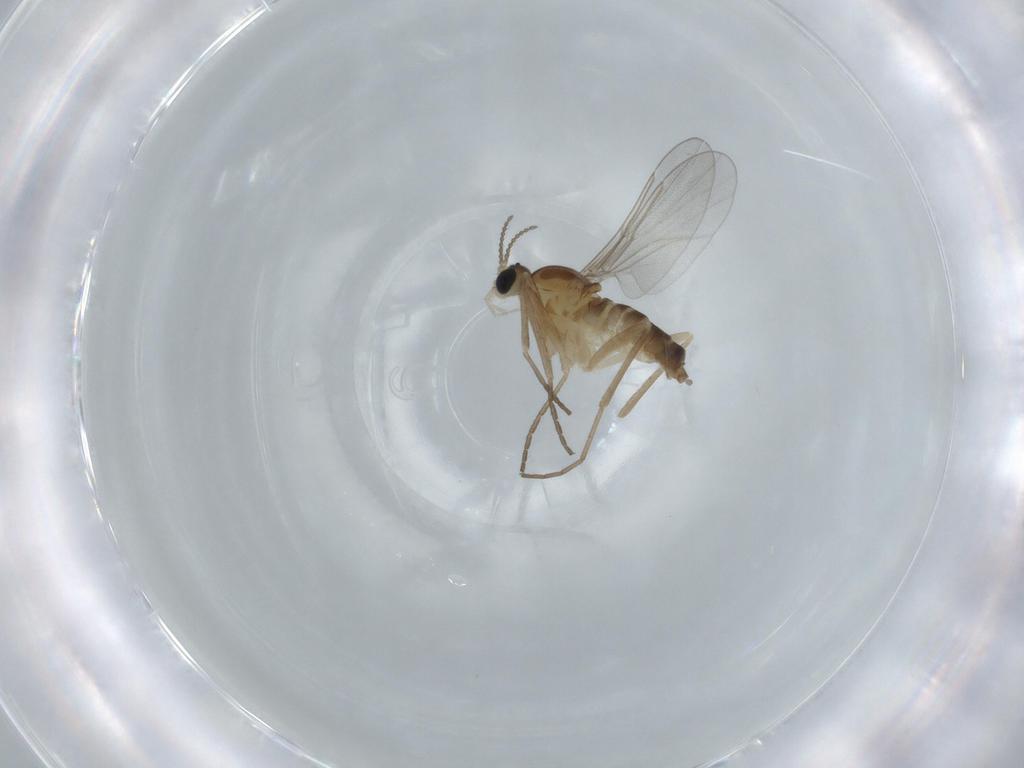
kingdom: Animalia
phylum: Arthropoda
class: Insecta
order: Diptera
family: Cecidomyiidae
